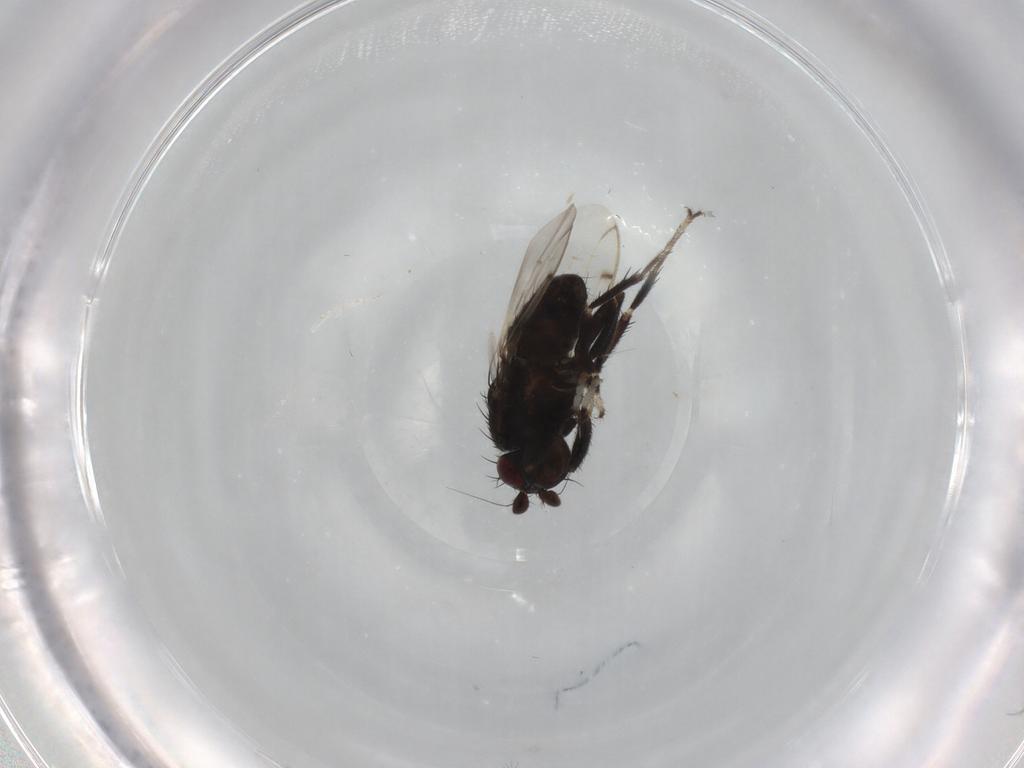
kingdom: Animalia
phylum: Arthropoda
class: Insecta
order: Diptera
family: Sphaeroceridae
